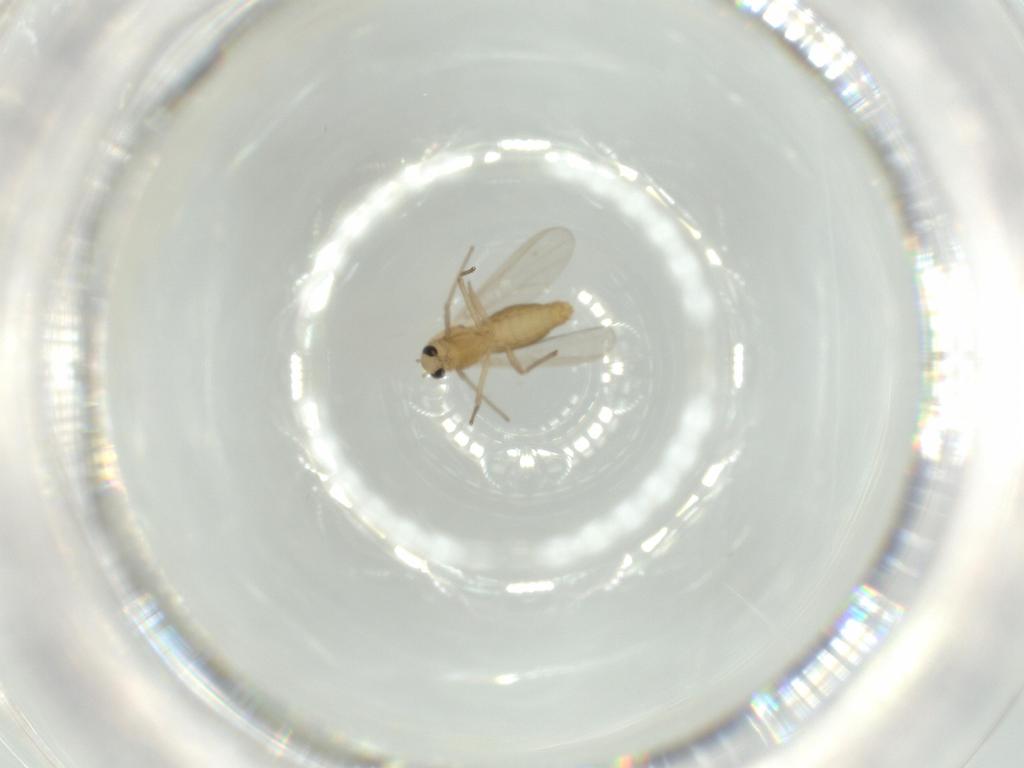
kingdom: Animalia
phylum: Arthropoda
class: Insecta
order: Diptera
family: Chironomidae
